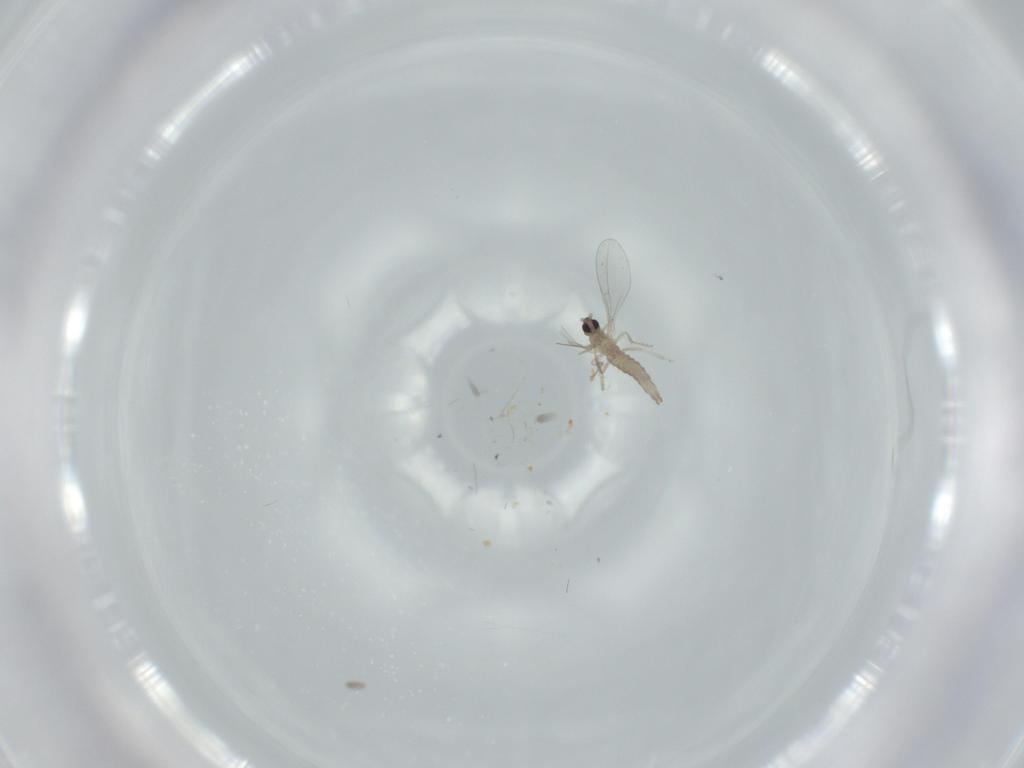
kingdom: Animalia
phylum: Arthropoda
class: Insecta
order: Diptera
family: Cecidomyiidae
